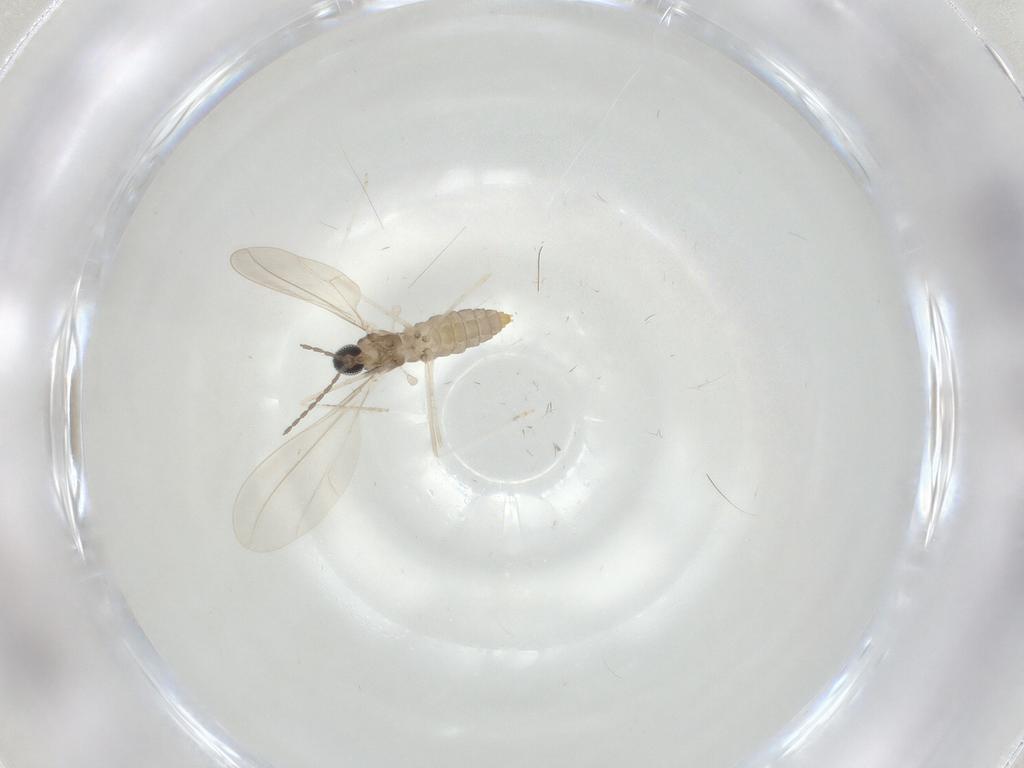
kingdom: Animalia
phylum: Arthropoda
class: Insecta
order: Diptera
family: Cecidomyiidae
